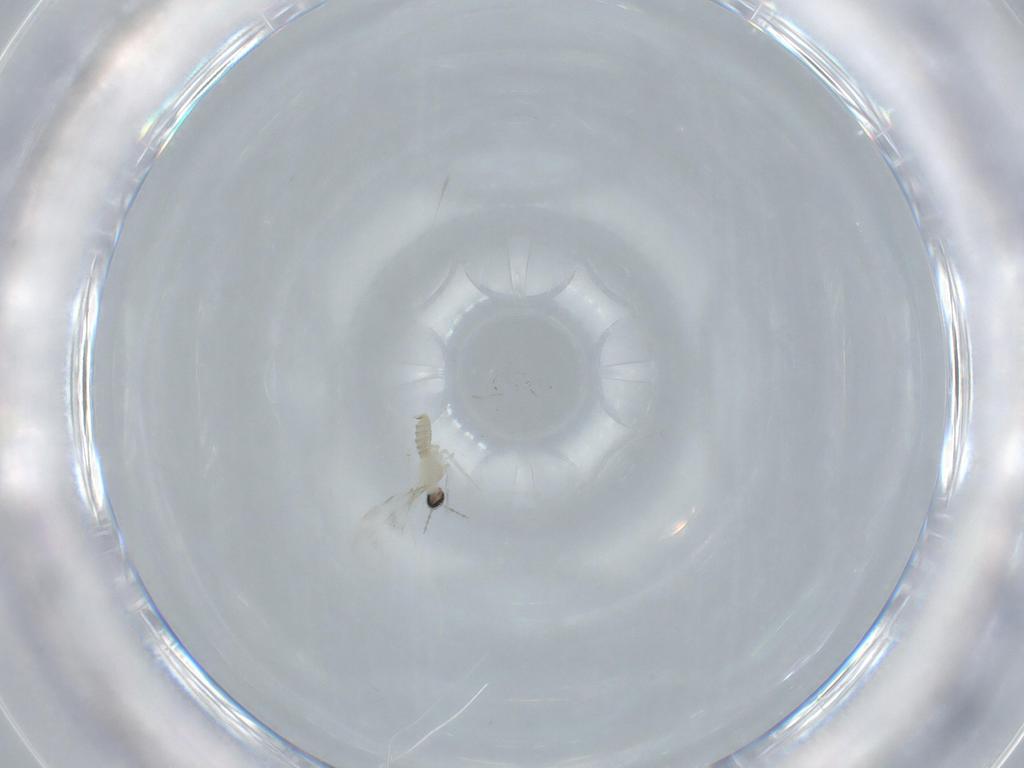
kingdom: Animalia
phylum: Arthropoda
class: Insecta
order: Diptera
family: Cecidomyiidae
